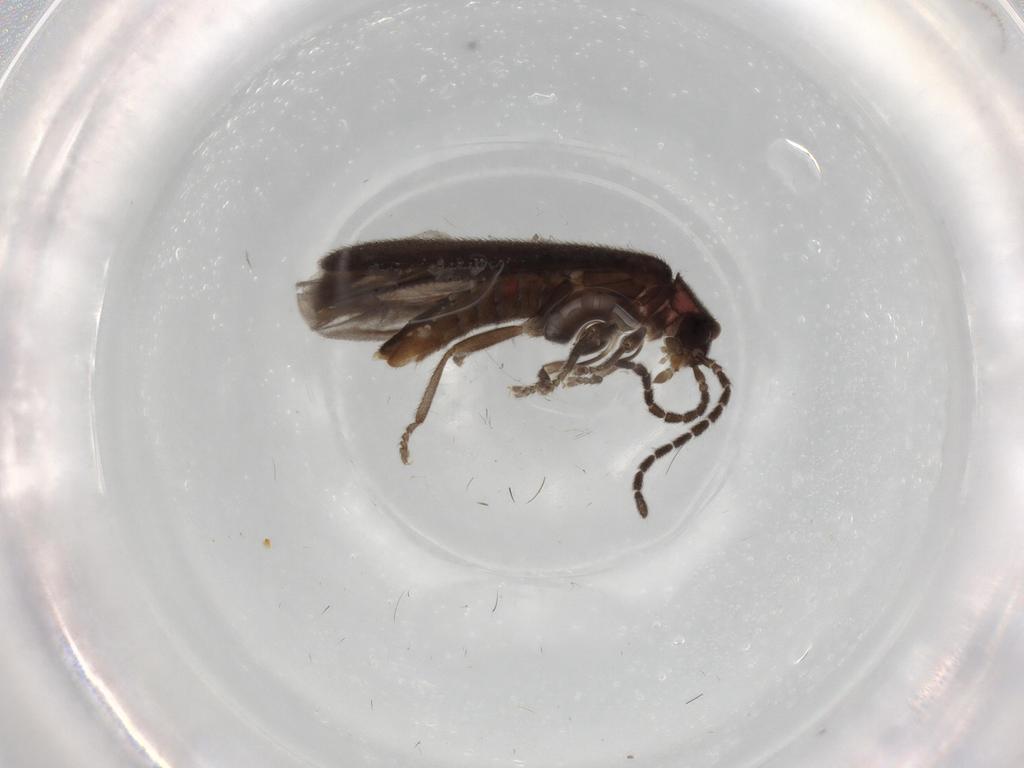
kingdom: Animalia
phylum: Arthropoda
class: Insecta
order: Coleoptera
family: Curculionidae
